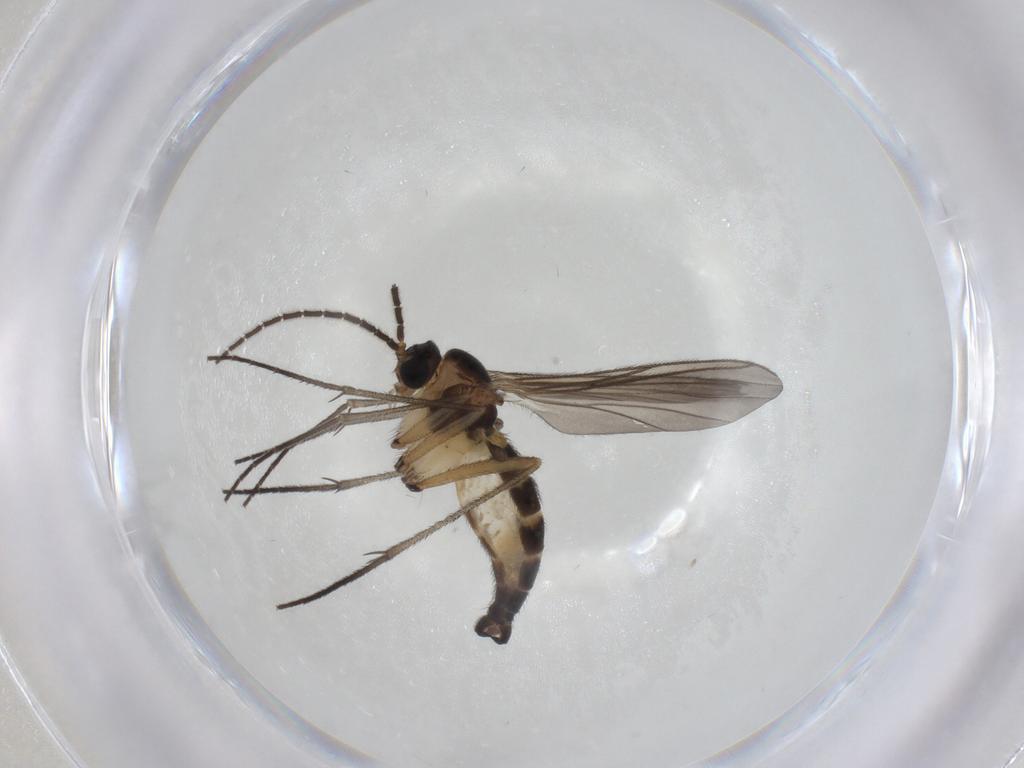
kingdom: Animalia
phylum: Arthropoda
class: Insecta
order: Diptera
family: Sciaridae
